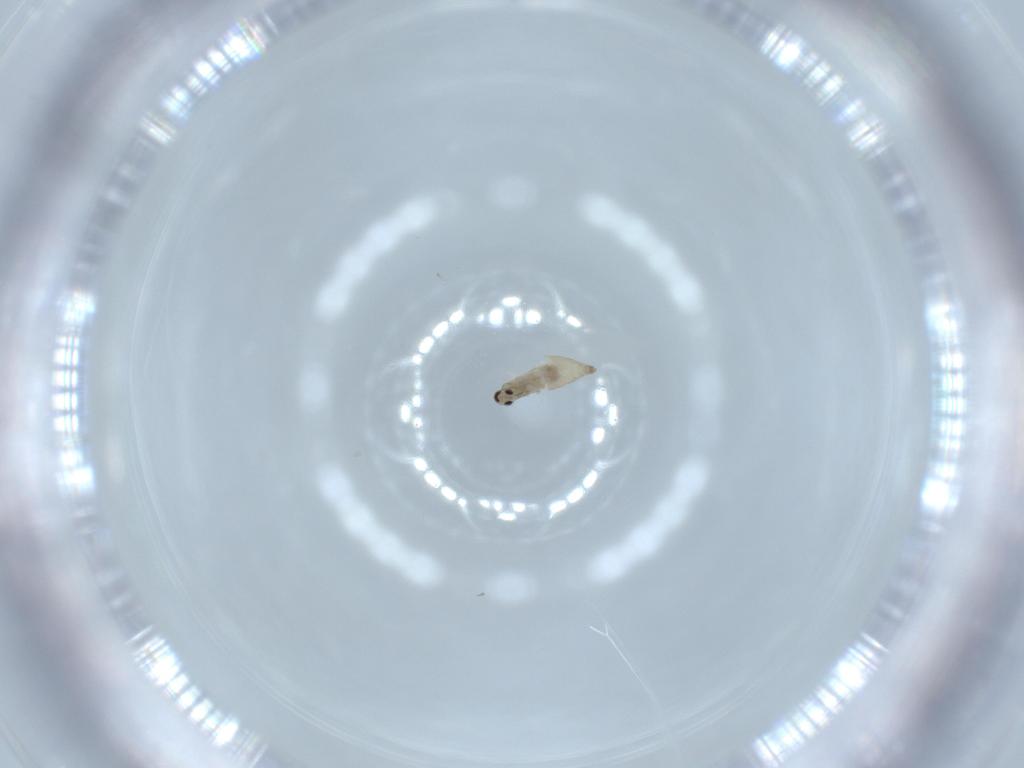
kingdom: Animalia
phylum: Arthropoda
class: Insecta
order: Diptera
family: Cecidomyiidae
